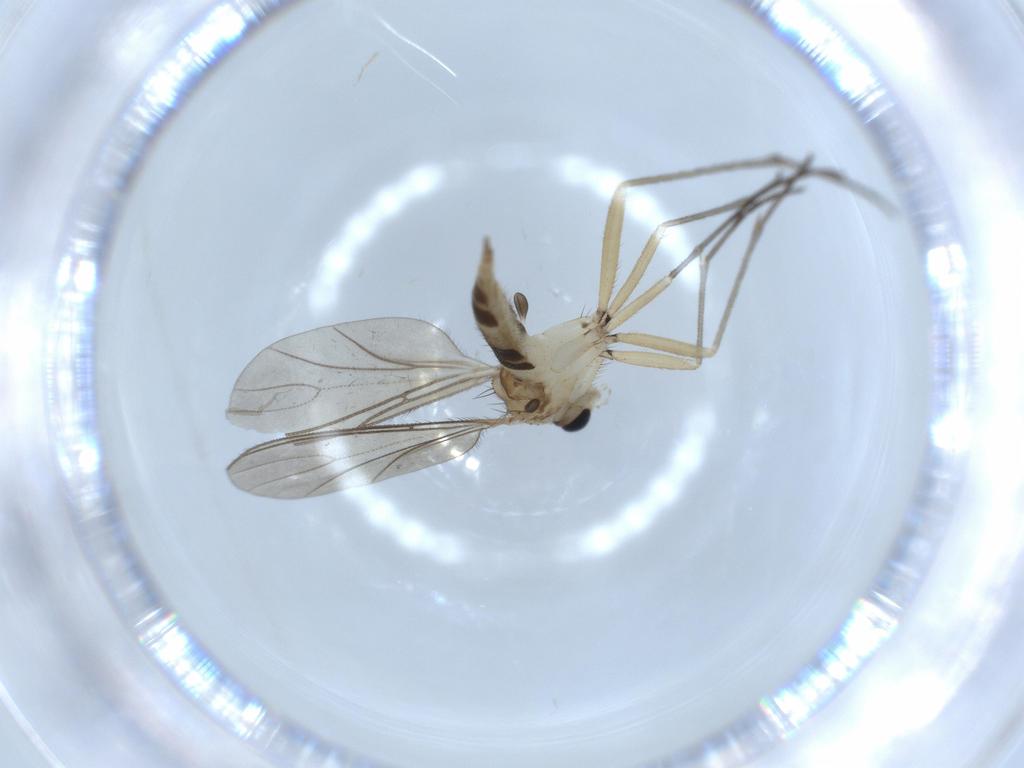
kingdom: Animalia
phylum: Arthropoda
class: Insecta
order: Diptera
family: Sciaridae
